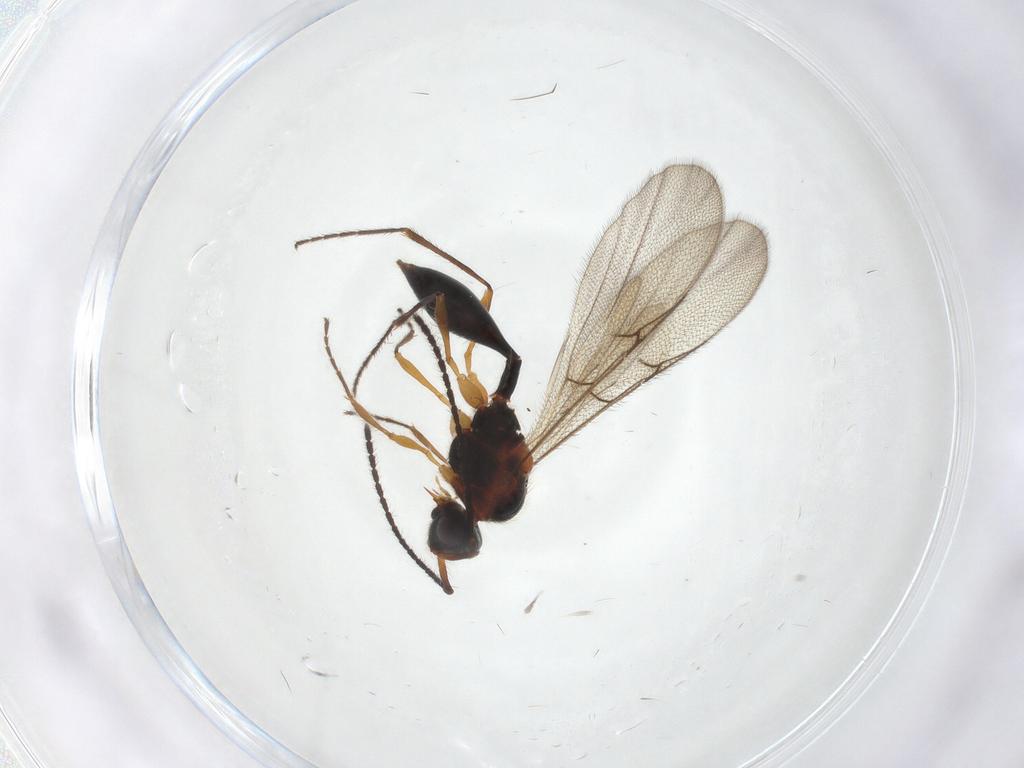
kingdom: Animalia
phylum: Arthropoda
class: Insecta
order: Hymenoptera
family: Diapriidae
